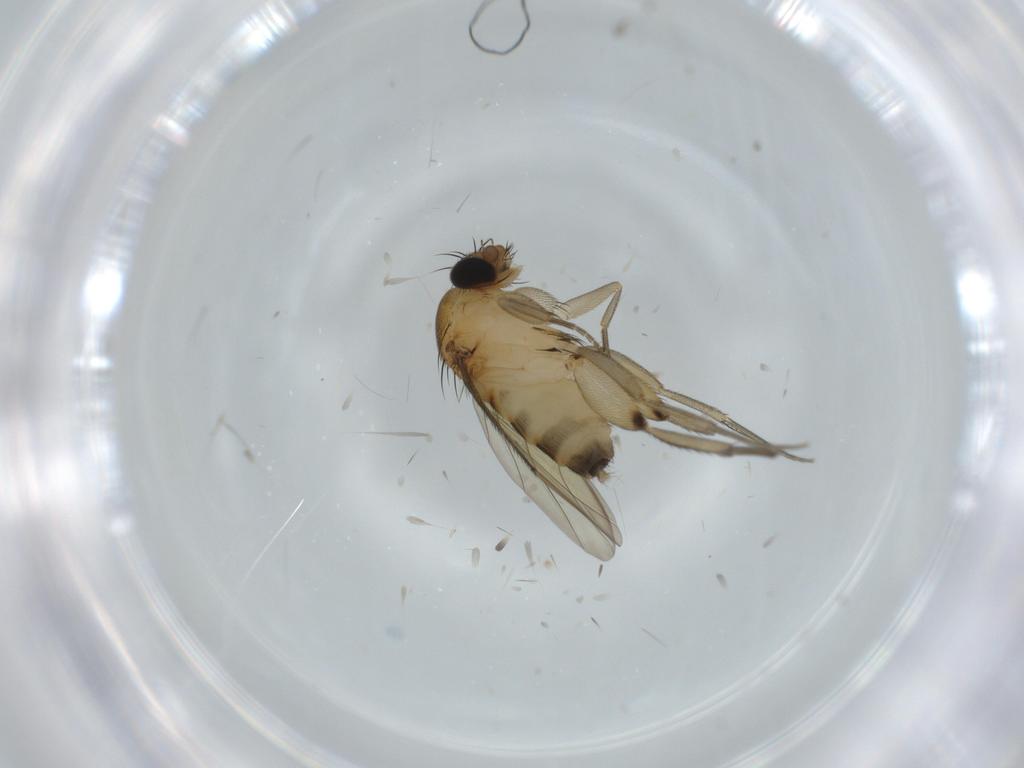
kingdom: Animalia
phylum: Arthropoda
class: Insecta
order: Diptera
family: Phoridae
